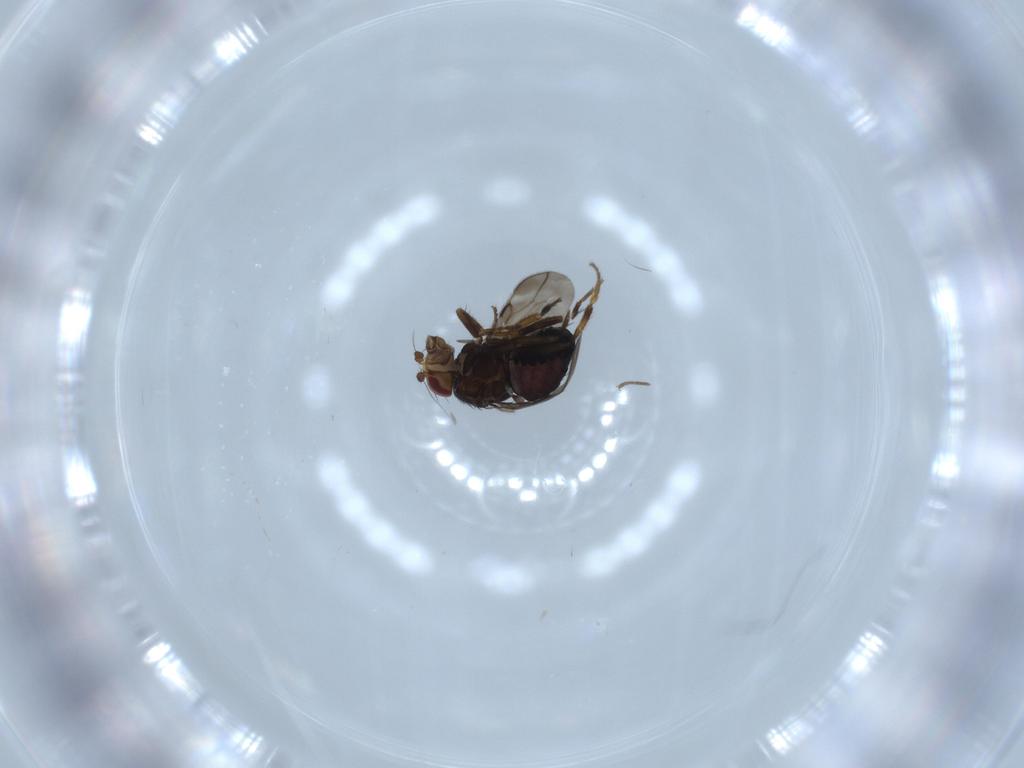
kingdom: Animalia
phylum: Arthropoda
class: Insecta
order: Diptera
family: Sphaeroceridae
